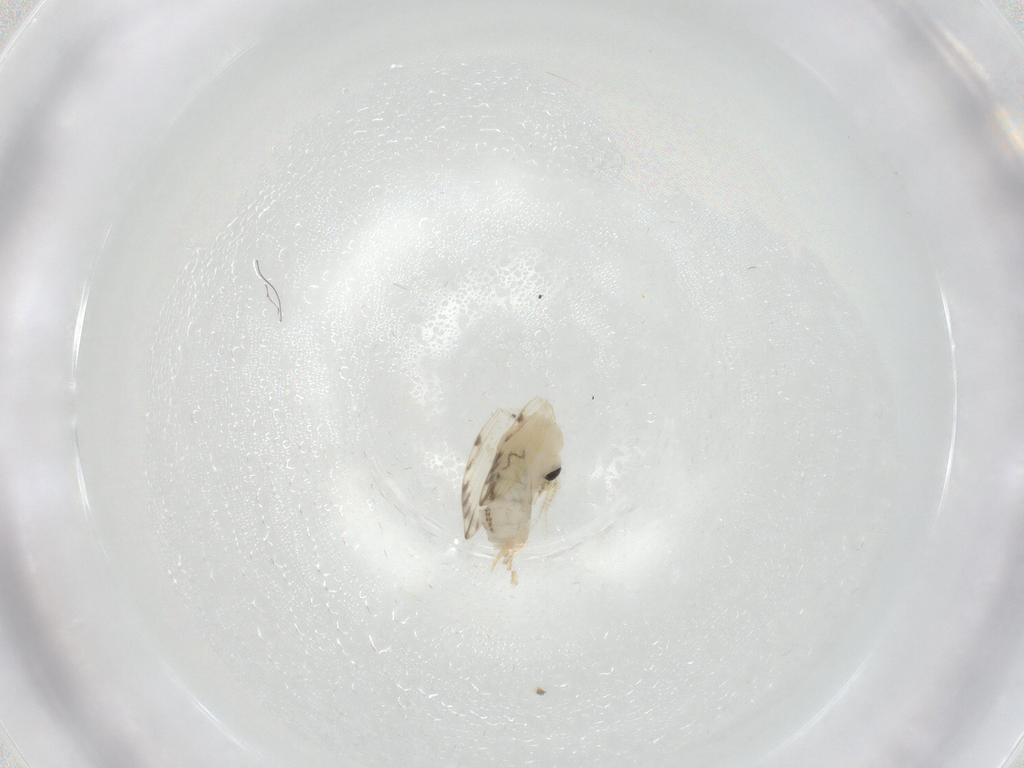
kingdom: Animalia
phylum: Arthropoda
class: Insecta
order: Diptera
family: Psychodidae
